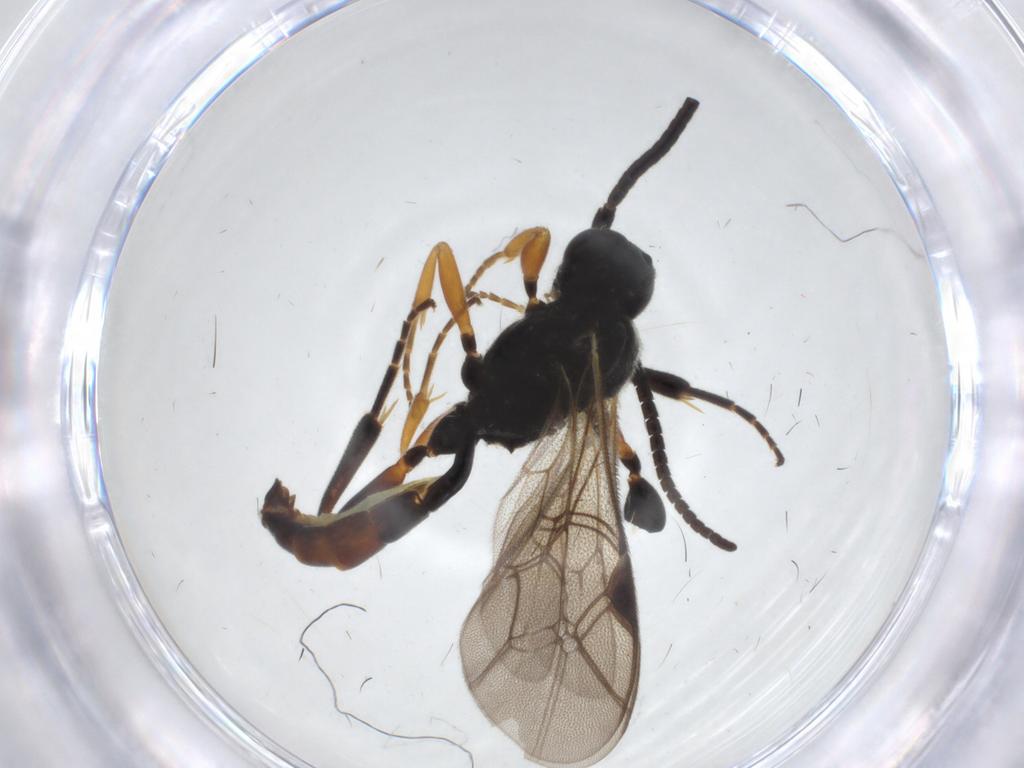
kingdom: Animalia
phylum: Arthropoda
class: Insecta
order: Hymenoptera
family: Ichneumonidae
